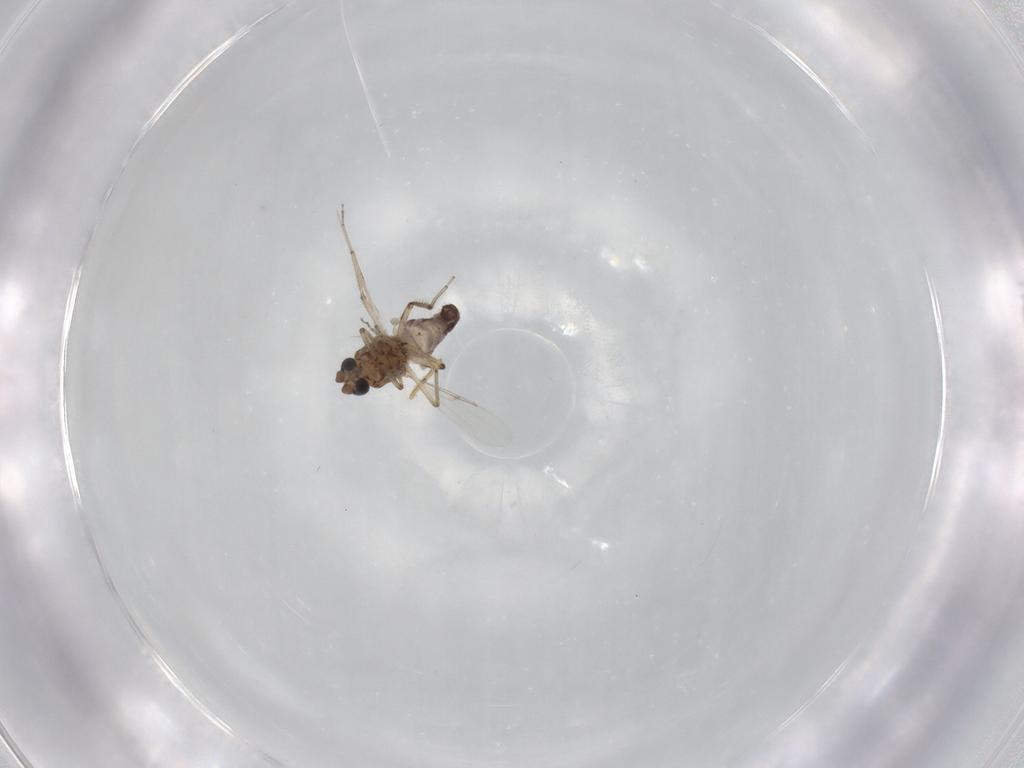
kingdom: Animalia
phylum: Arthropoda
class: Insecta
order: Diptera
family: Ceratopogonidae
